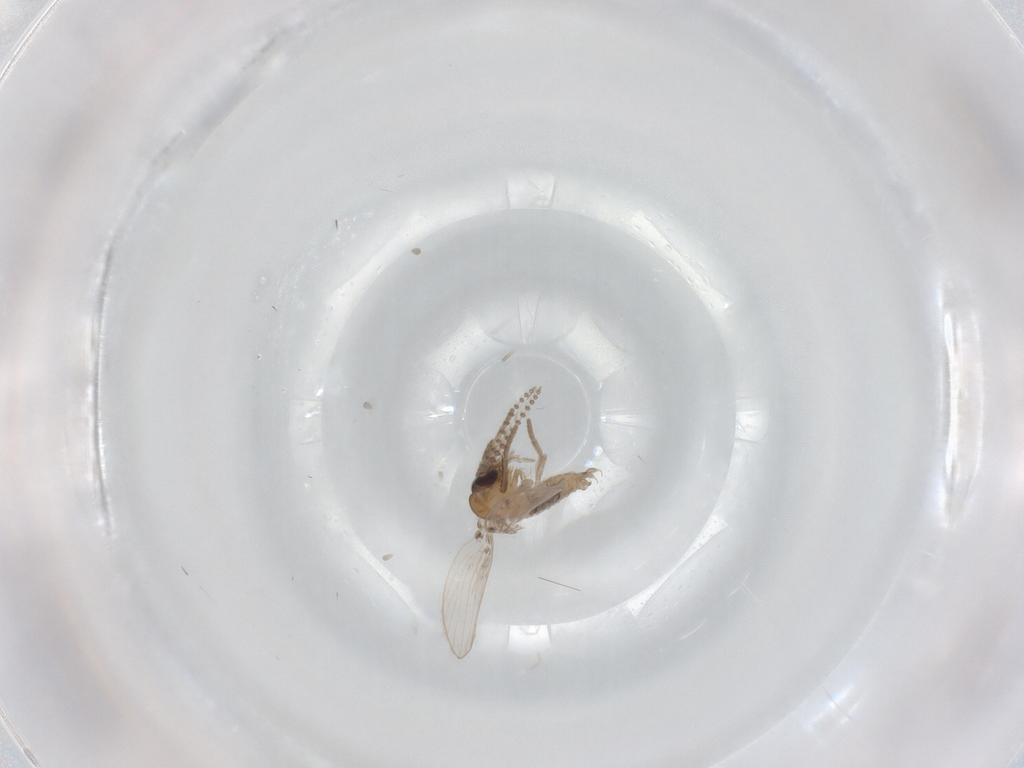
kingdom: Animalia
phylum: Arthropoda
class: Insecta
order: Diptera
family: Psychodidae
